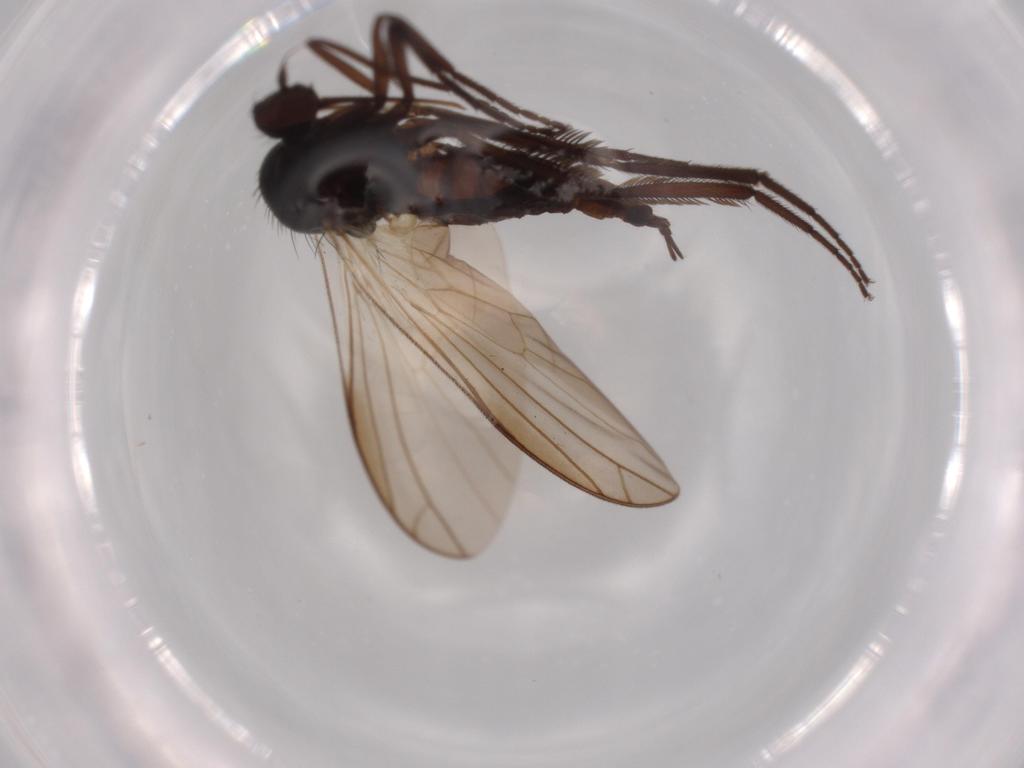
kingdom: Animalia
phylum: Arthropoda
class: Insecta
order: Diptera
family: Empididae
